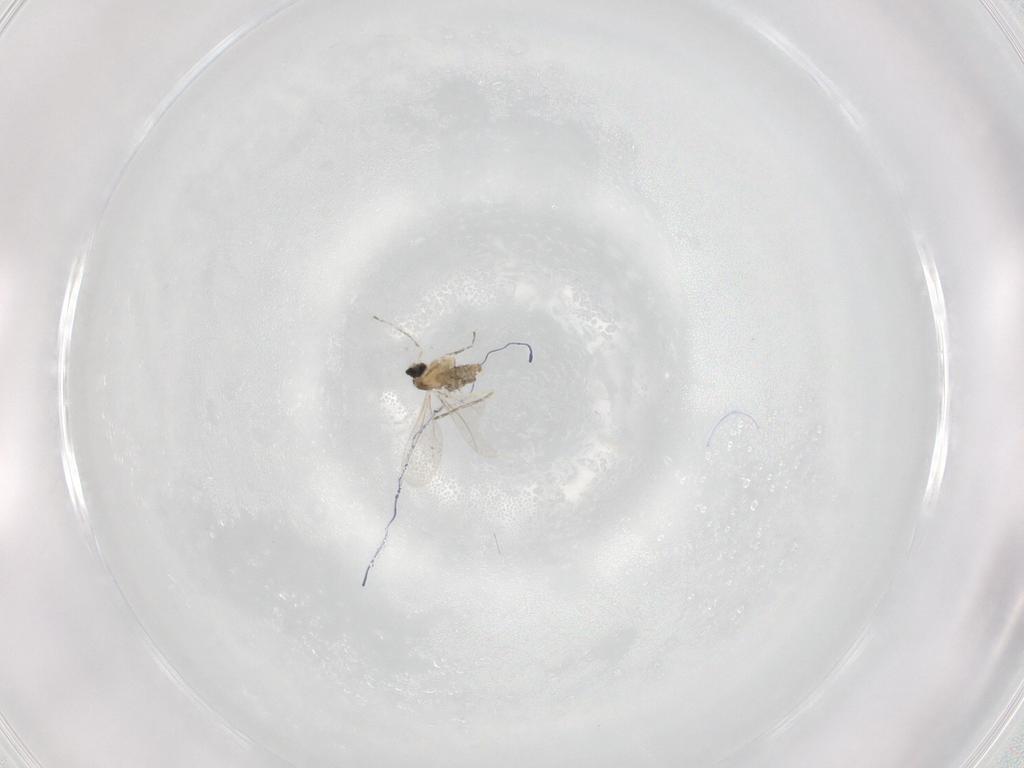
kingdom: Animalia
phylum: Arthropoda
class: Insecta
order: Diptera
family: Cecidomyiidae
